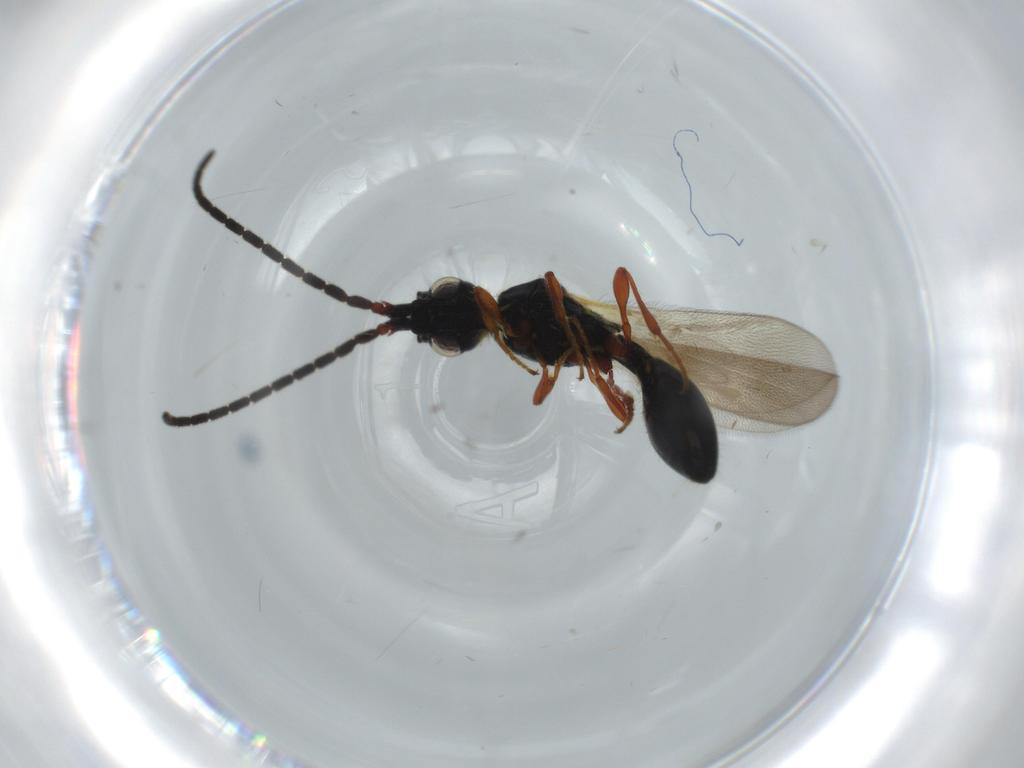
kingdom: Animalia
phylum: Arthropoda
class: Insecta
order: Hymenoptera
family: Diapriidae
